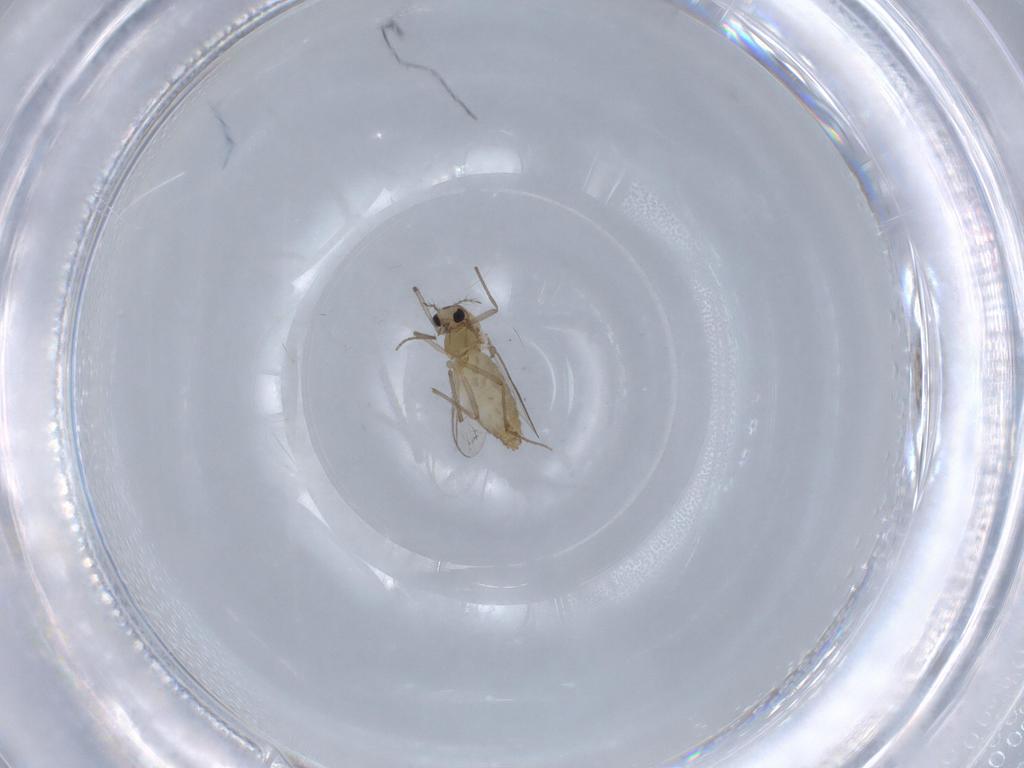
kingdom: Animalia
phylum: Arthropoda
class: Insecta
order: Diptera
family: Chironomidae
